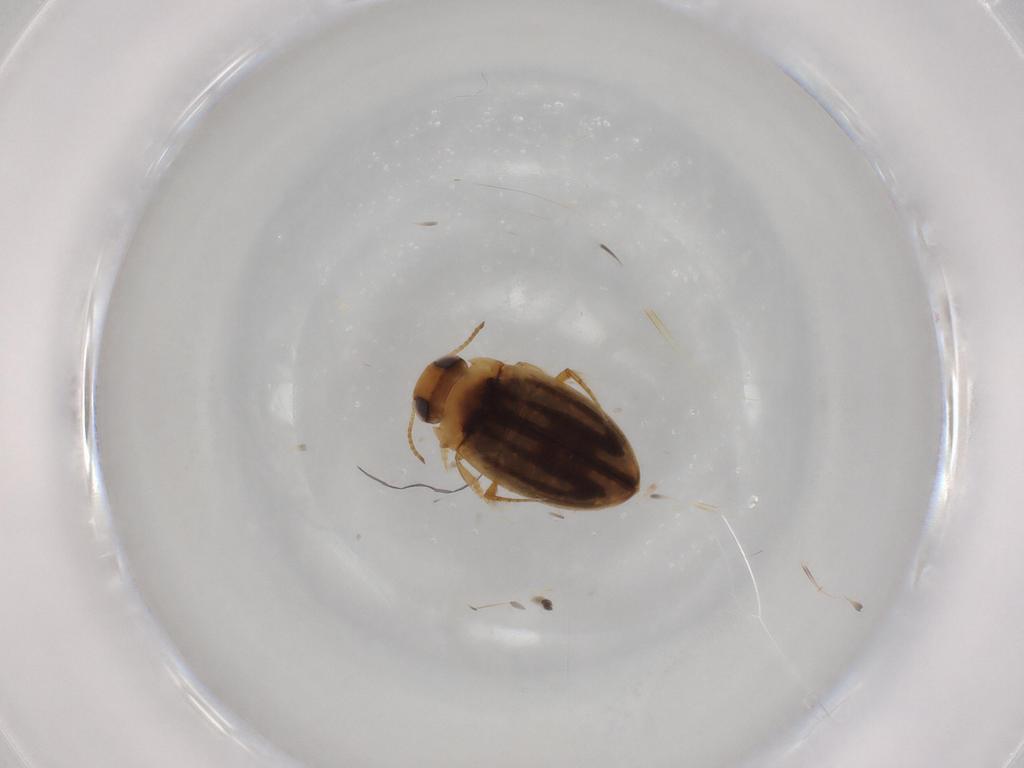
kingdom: Animalia
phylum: Arthropoda
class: Insecta
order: Coleoptera
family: Dytiscidae
